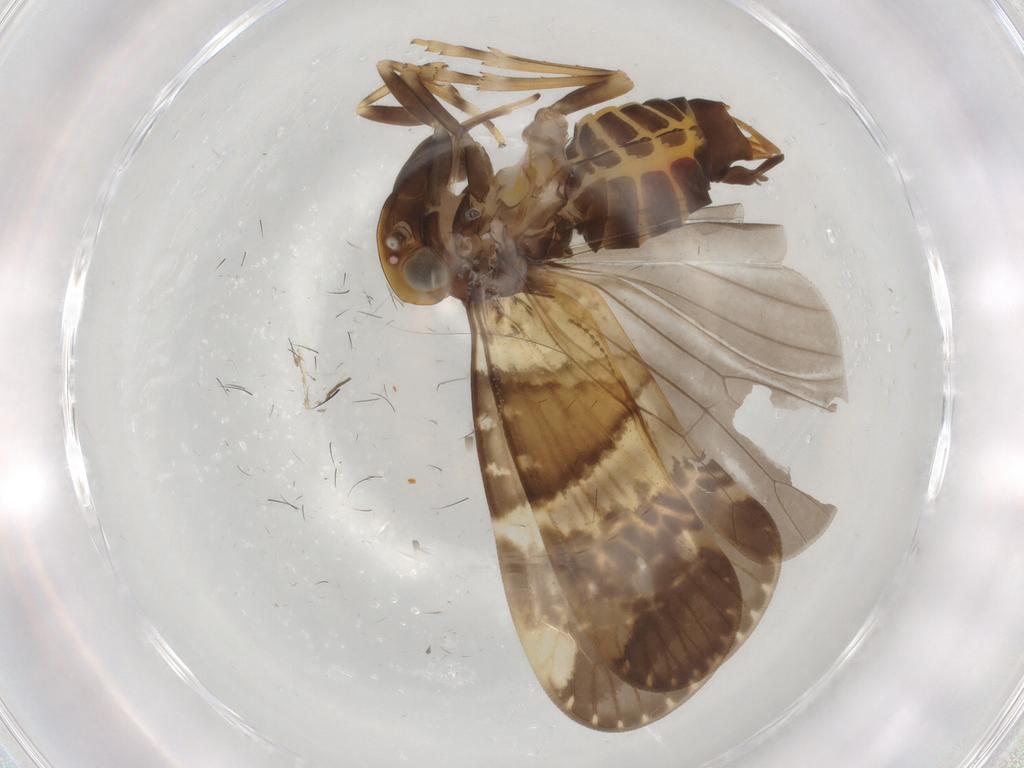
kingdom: Animalia
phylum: Arthropoda
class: Insecta
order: Hemiptera
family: Cixiidae
